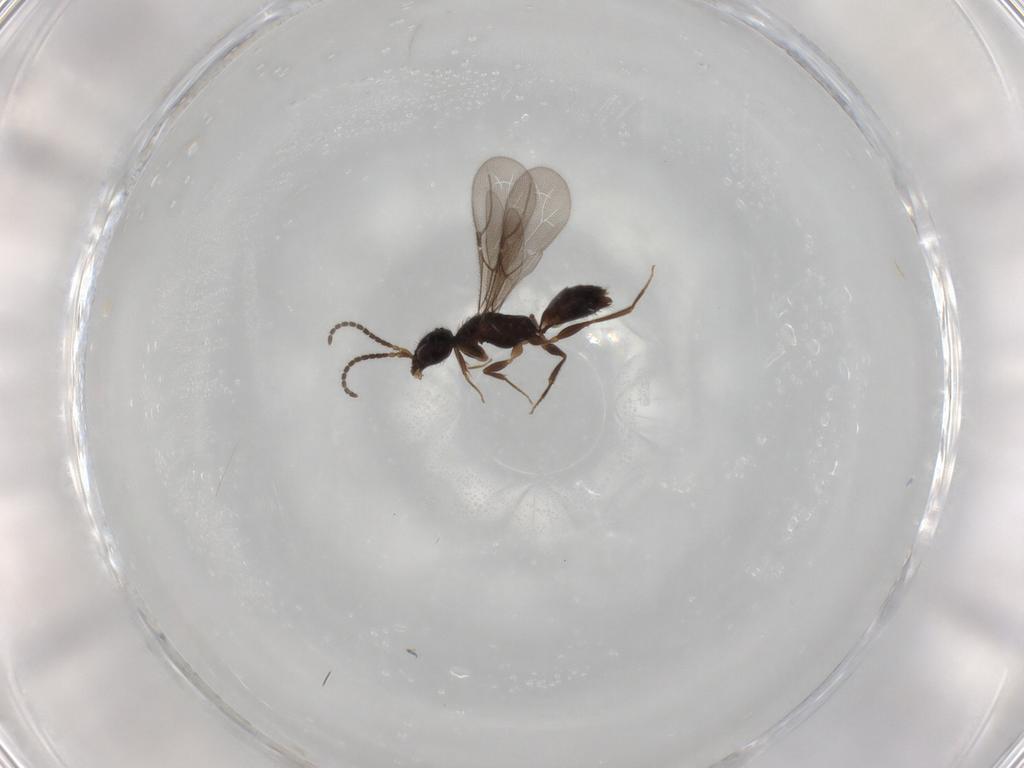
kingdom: Animalia
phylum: Arthropoda
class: Insecta
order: Hymenoptera
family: Bethylidae
